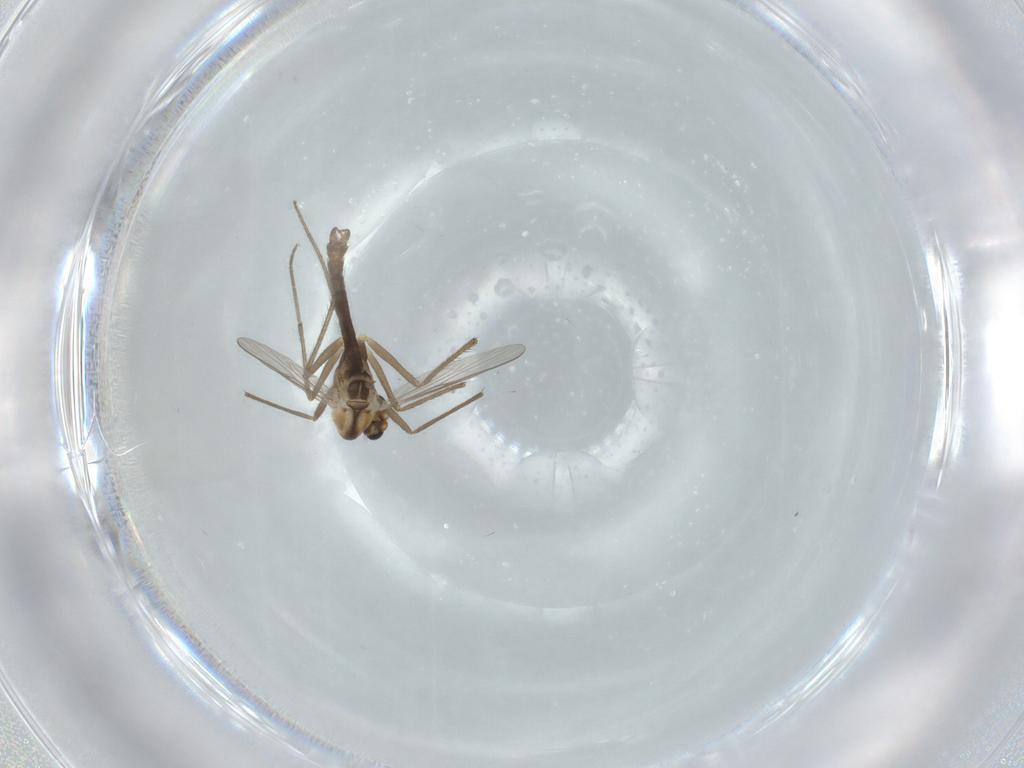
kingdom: Animalia
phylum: Arthropoda
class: Insecta
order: Diptera
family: Chironomidae
